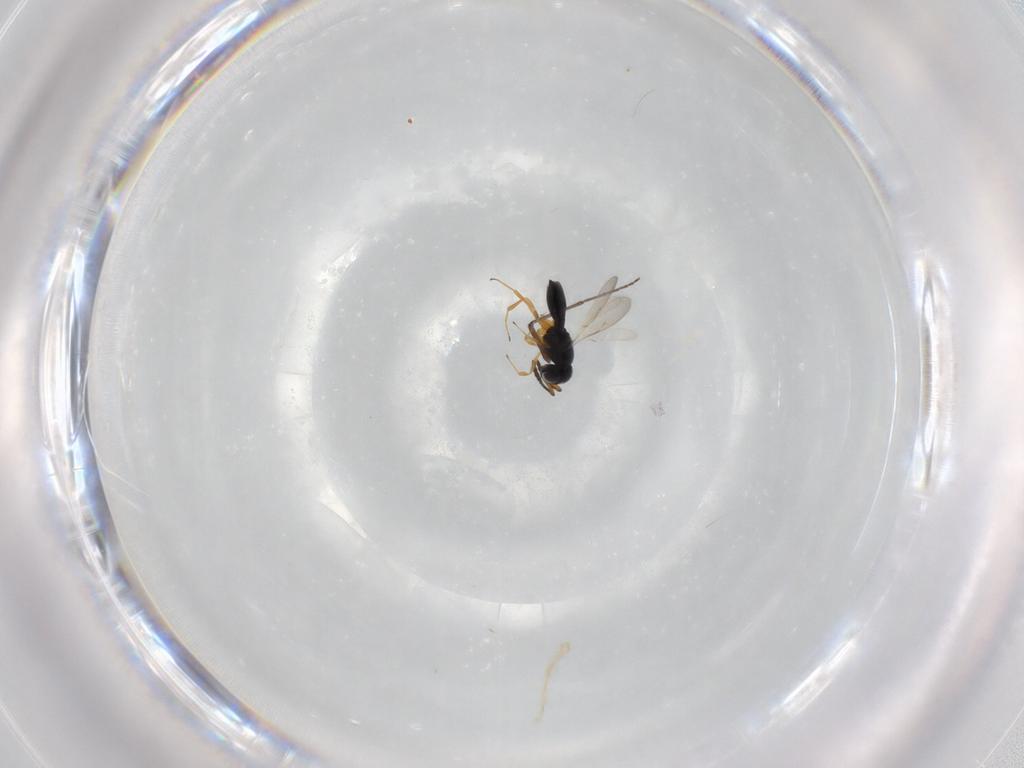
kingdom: Animalia
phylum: Arthropoda
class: Insecta
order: Hymenoptera
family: Scelionidae
